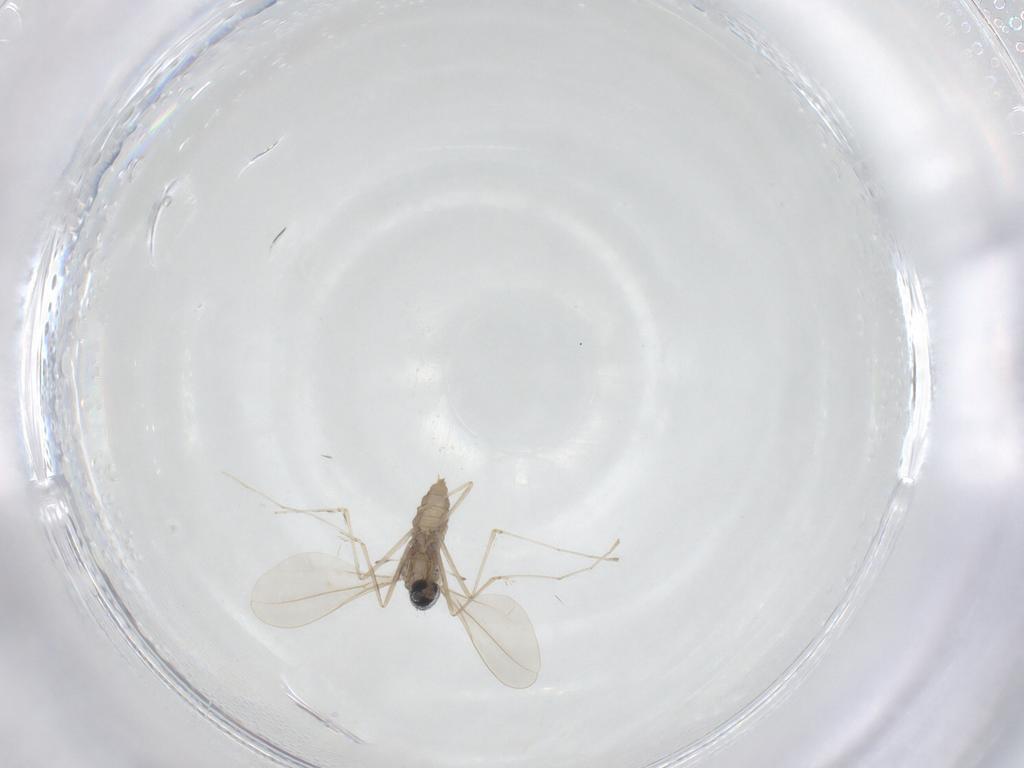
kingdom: Animalia
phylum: Arthropoda
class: Insecta
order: Diptera
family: Cecidomyiidae
